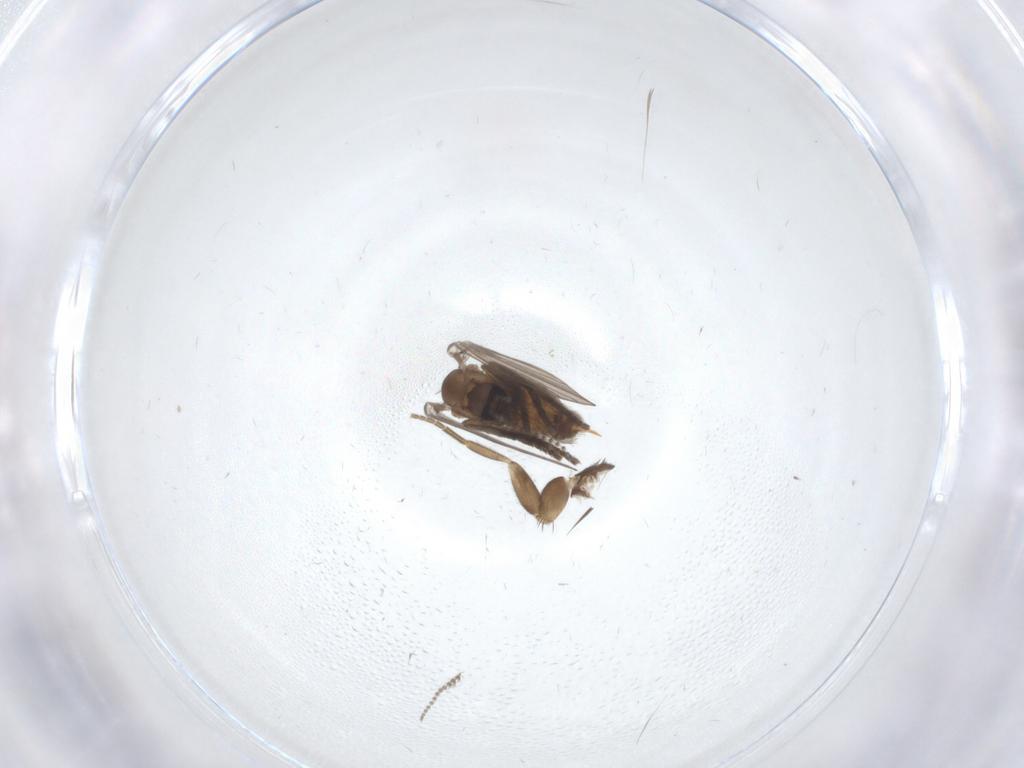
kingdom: Animalia
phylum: Arthropoda
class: Insecta
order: Diptera
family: Phoridae
